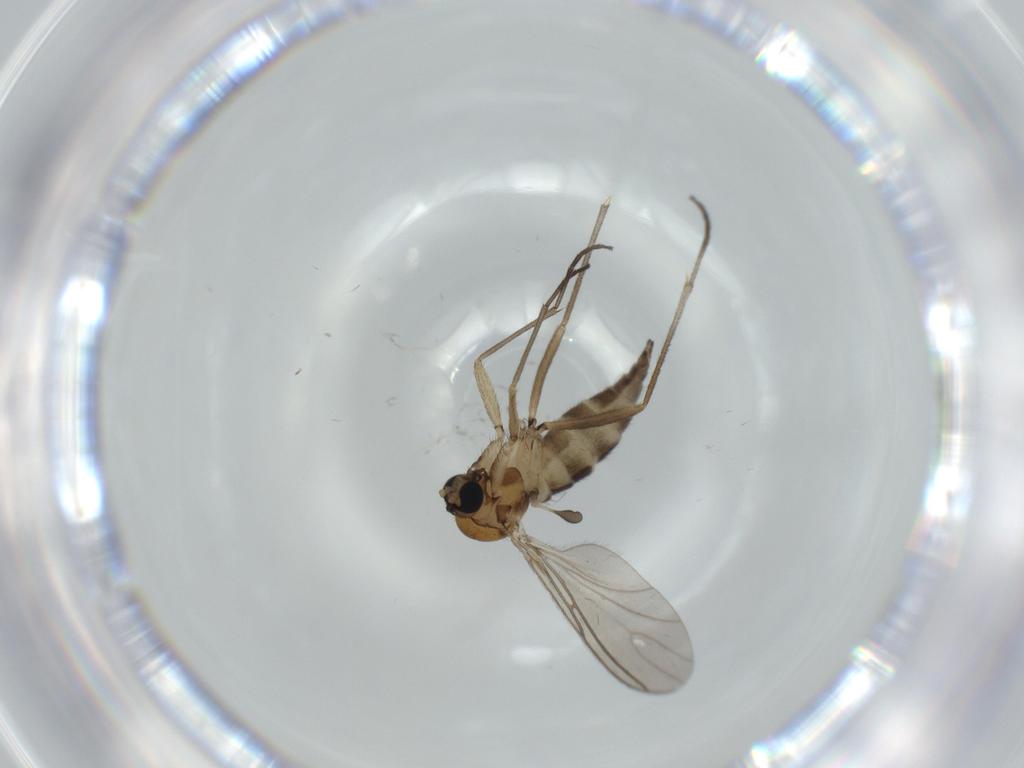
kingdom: Animalia
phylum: Arthropoda
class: Insecta
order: Diptera
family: Sciaridae
